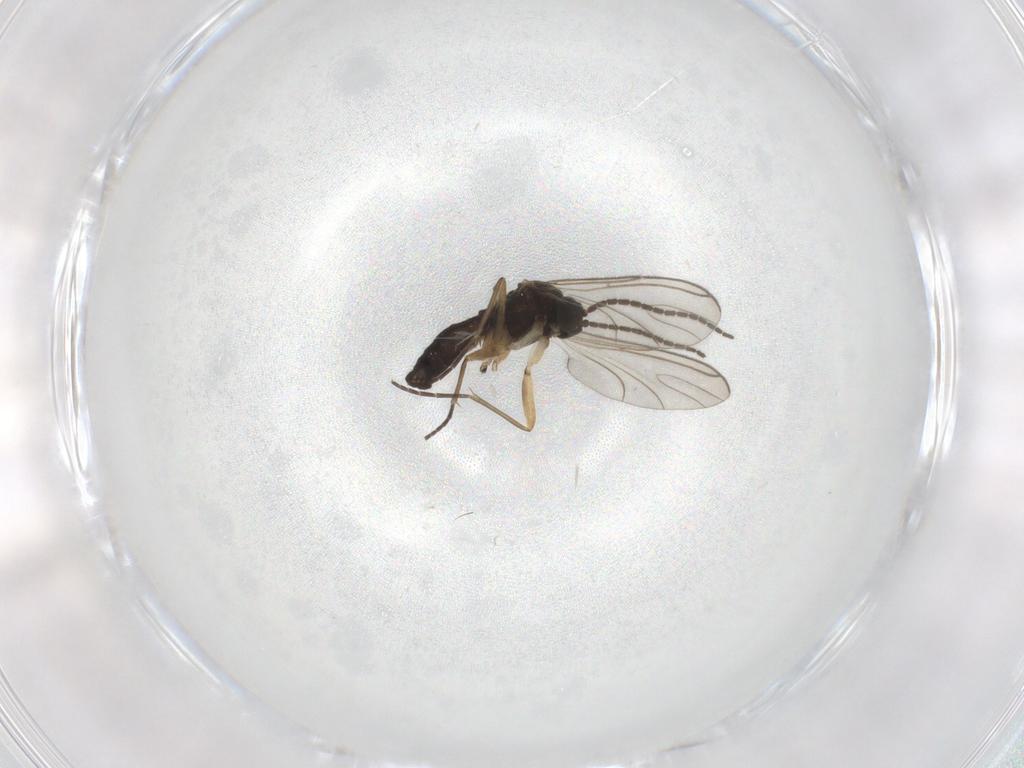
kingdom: Animalia
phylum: Arthropoda
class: Insecta
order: Diptera
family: Sciaridae
